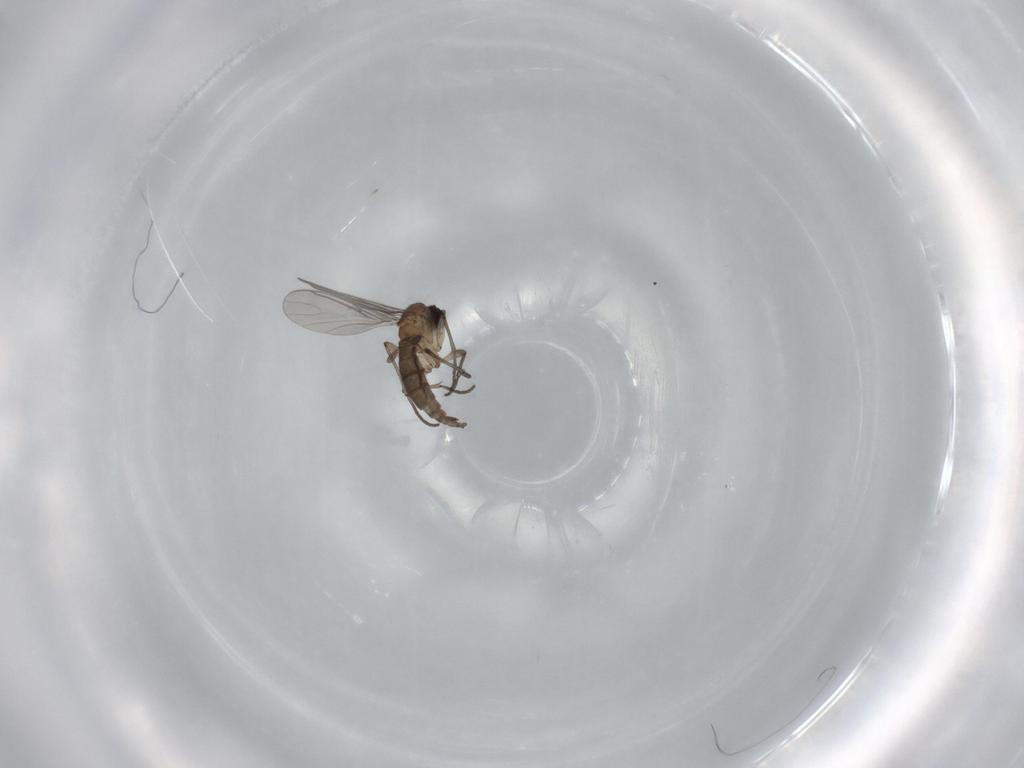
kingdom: Animalia
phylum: Arthropoda
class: Insecta
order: Diptera
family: Sciaridae
